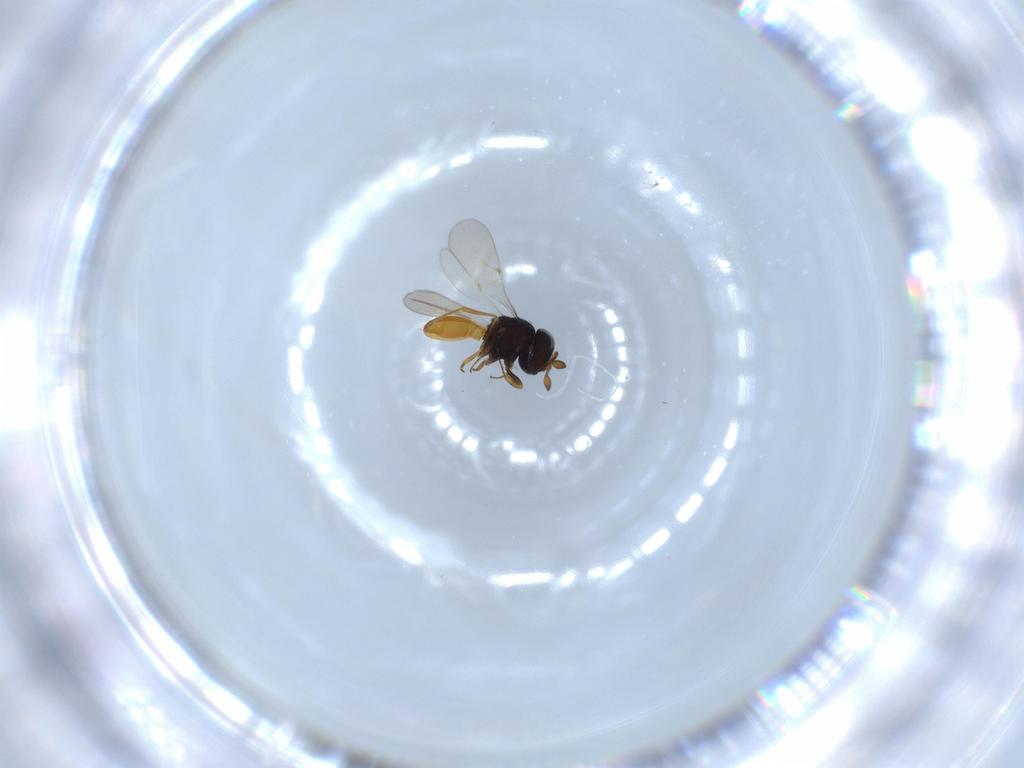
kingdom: Animalia
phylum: Arthropoda
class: Insecta
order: Hymenoptera
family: Scelionidae
